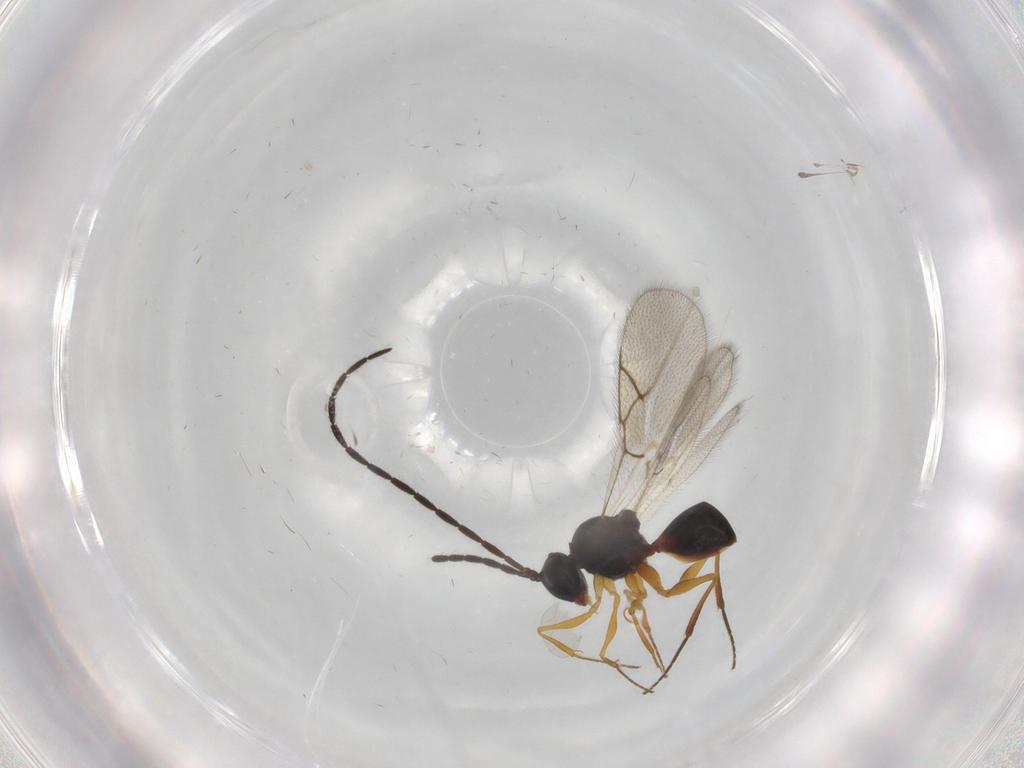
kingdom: Animalia
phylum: Arthropoda
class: Insecta
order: Hymenoptera
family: Figitidae
